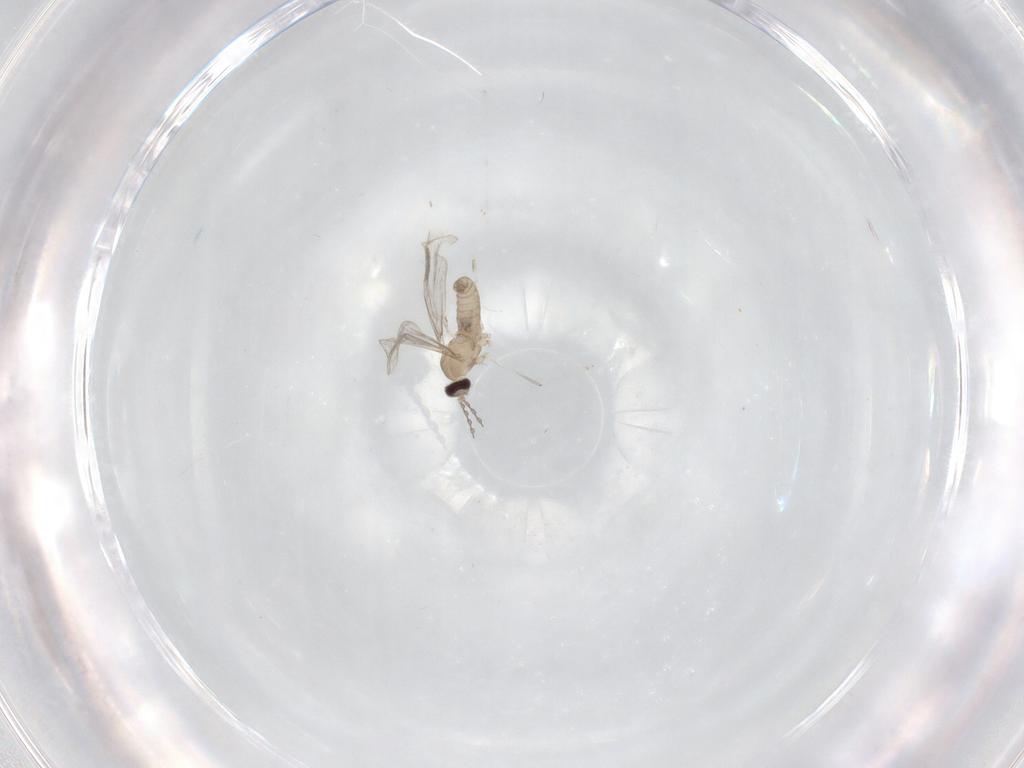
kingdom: Animalia
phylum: Arthropoda
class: Insecta
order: Diptera
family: Cecidomyiidae
